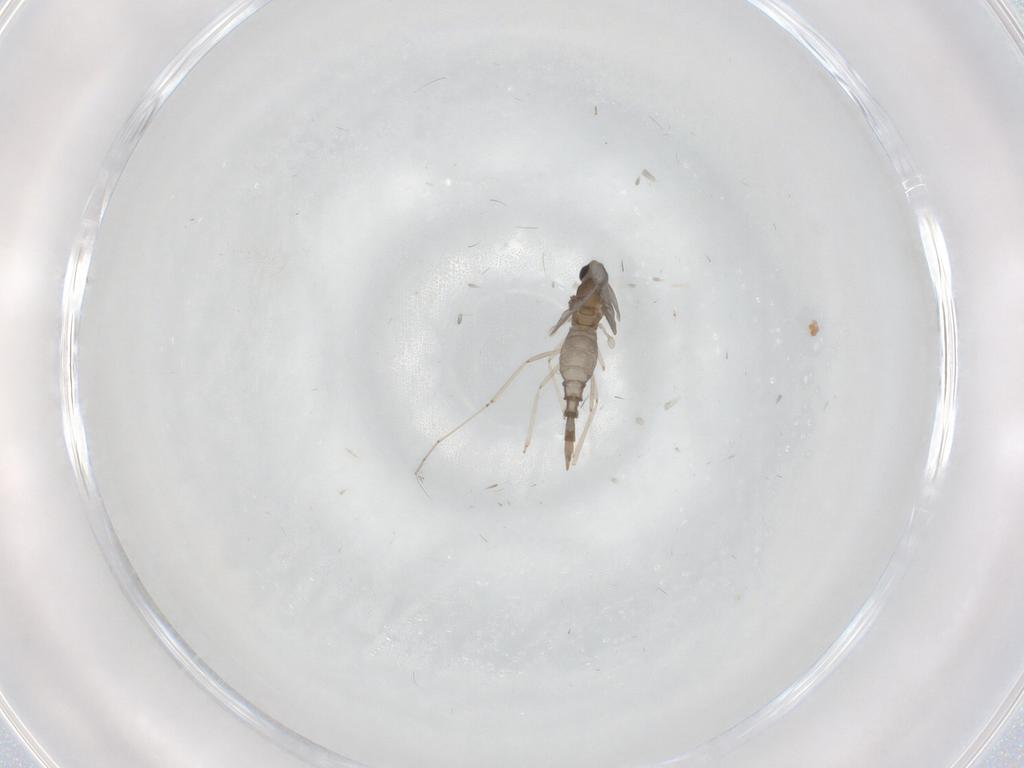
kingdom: Animalia
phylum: Arthropoda
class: Insecta
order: Diptera
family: Cecidomyiidae
